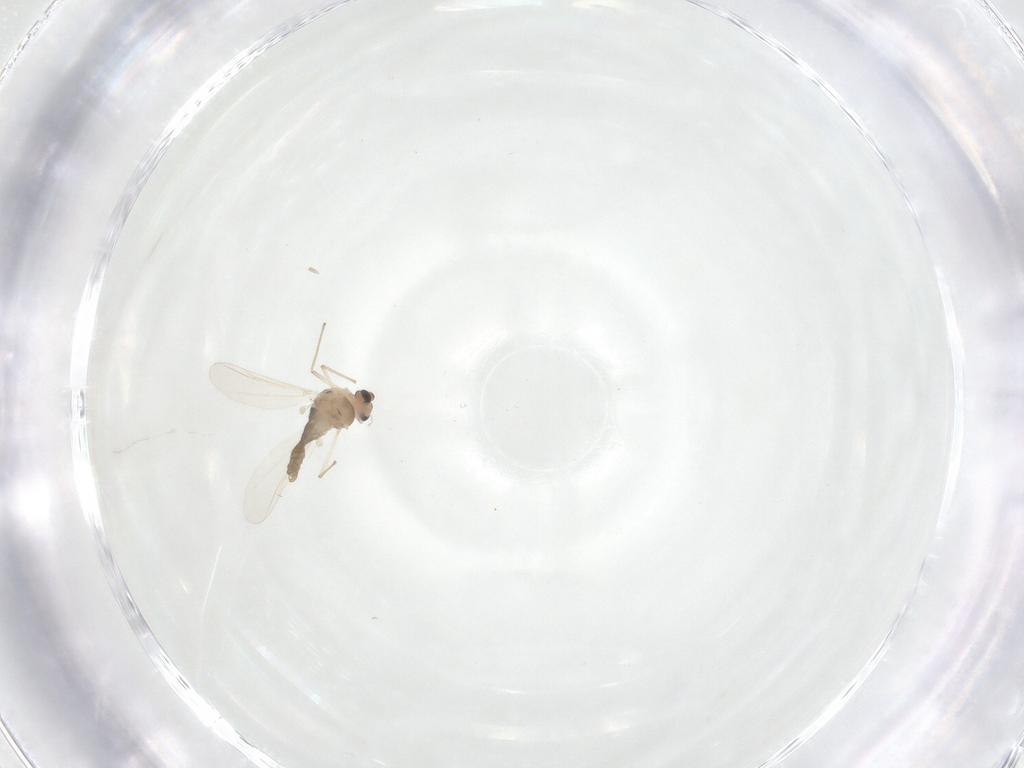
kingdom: Animalia
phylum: Arthropoda
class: Insecta
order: Diptera
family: Chironomidae
